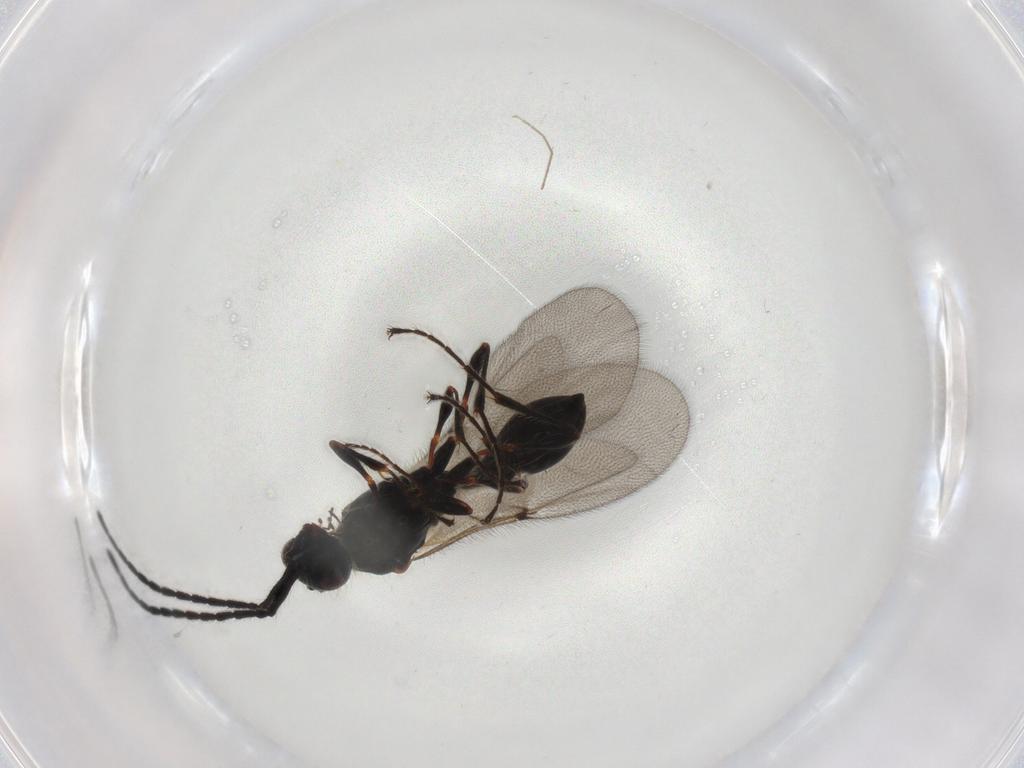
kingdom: Animalia
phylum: Arthropoda
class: Insecta
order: Hymenoptera
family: Diapriidae
